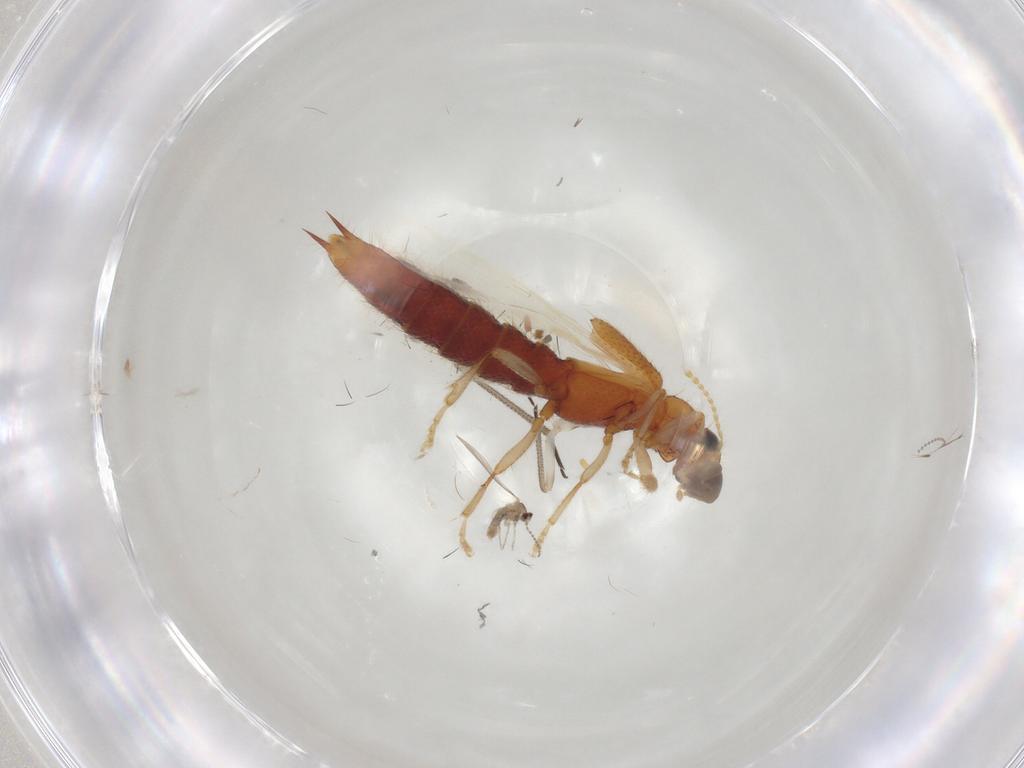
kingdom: Animalia
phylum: Arthropoda
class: Insecta
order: Coleoptera
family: Staphylinidae
